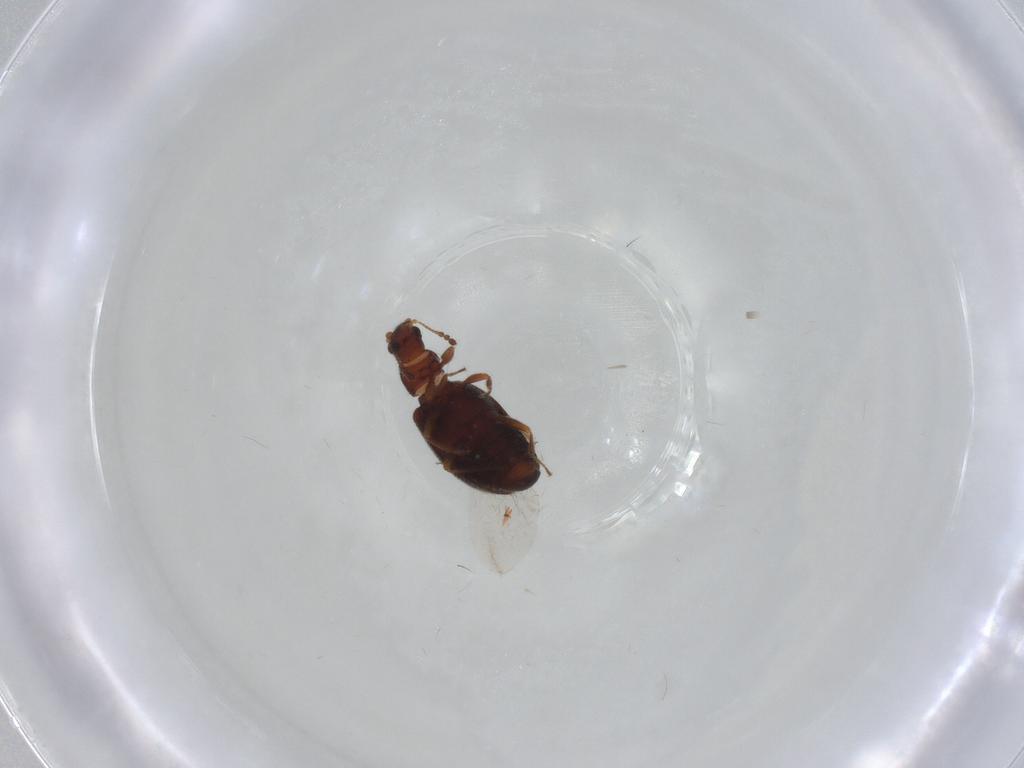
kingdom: Animalia
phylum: Arthropoda
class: Insecta
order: Coleoptera
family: Latridiidae
